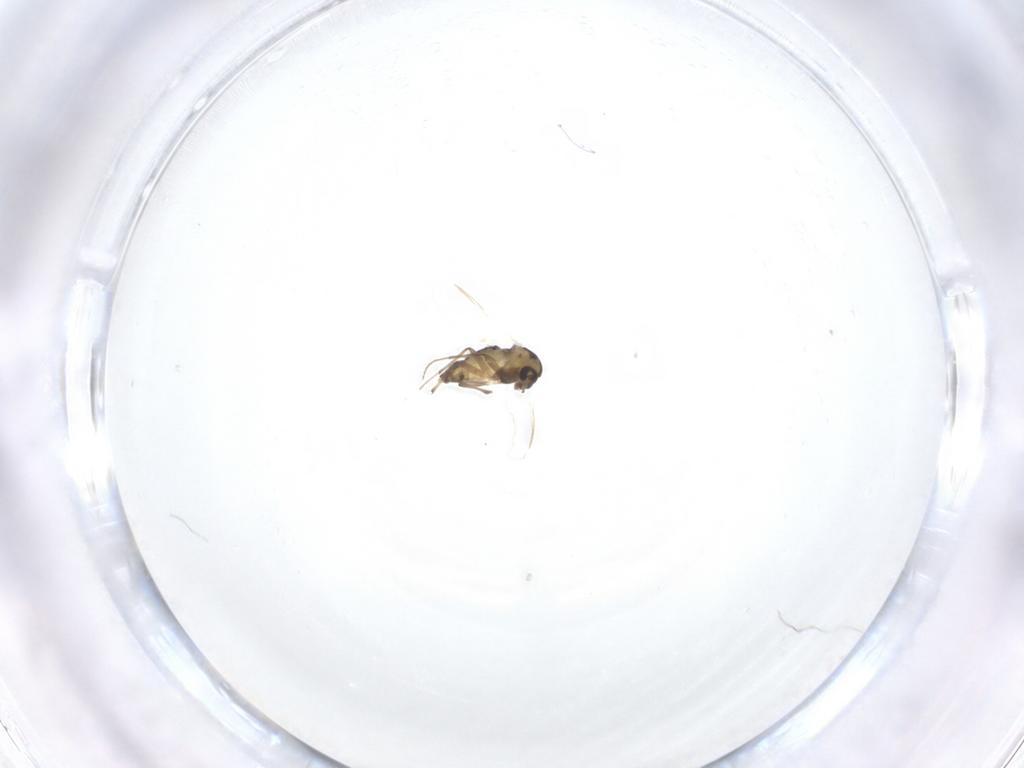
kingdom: Animalia
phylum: Arthropoda
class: Insecta
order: Diptera
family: Chironomidae
